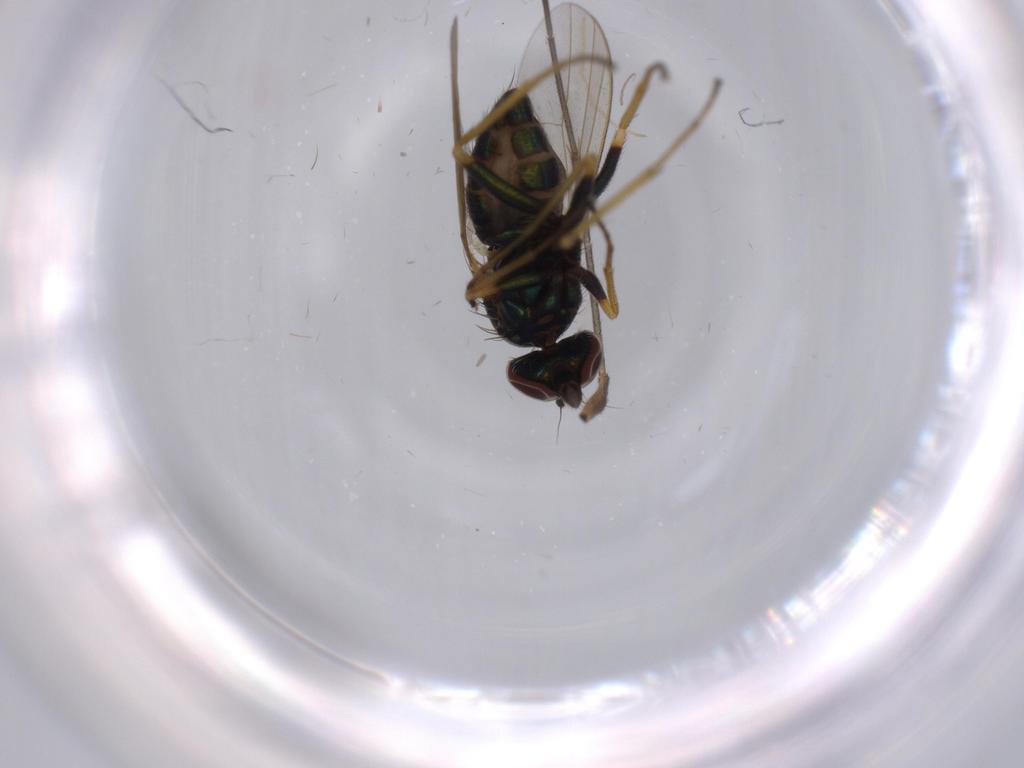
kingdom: Animalia
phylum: Arthropoda
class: Insecta
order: Diptera
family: Dolichopodidae
